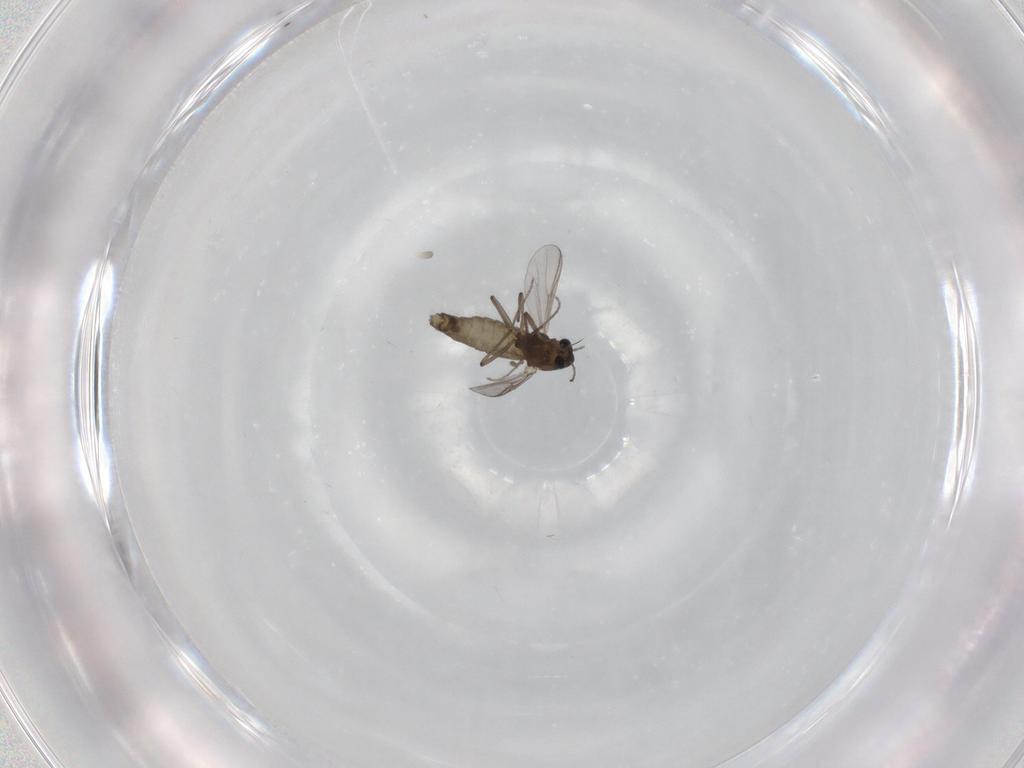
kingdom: Animalia
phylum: Arthropoda
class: Insecta
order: Diptera
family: Chironomidae
